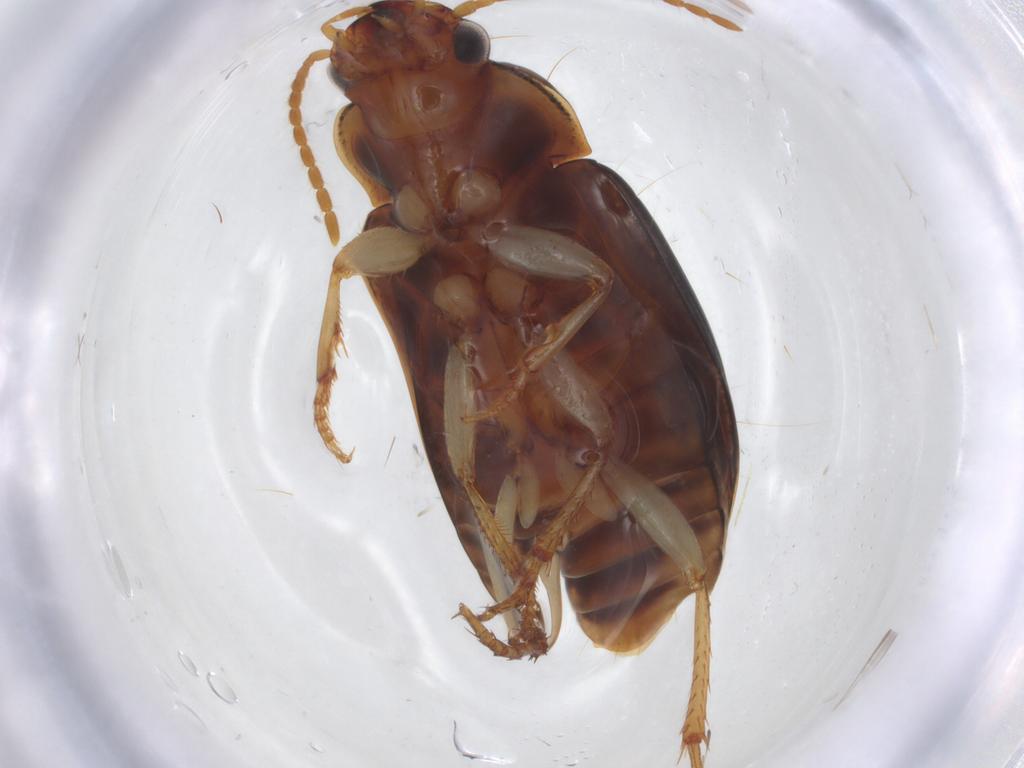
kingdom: Animalia
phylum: Arthropoda
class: Insecta
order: Coleoptera
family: Carabidae
